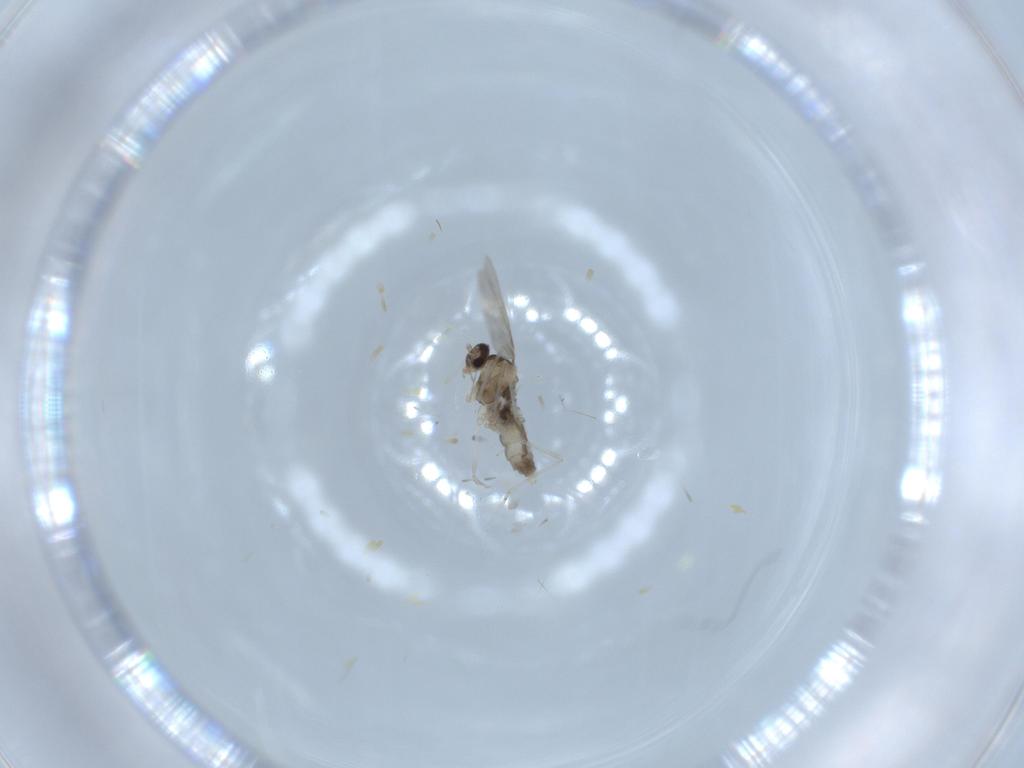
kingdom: Animalia
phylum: Arthropoda
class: Insecta
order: Diptera
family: Cecidomyiidae
